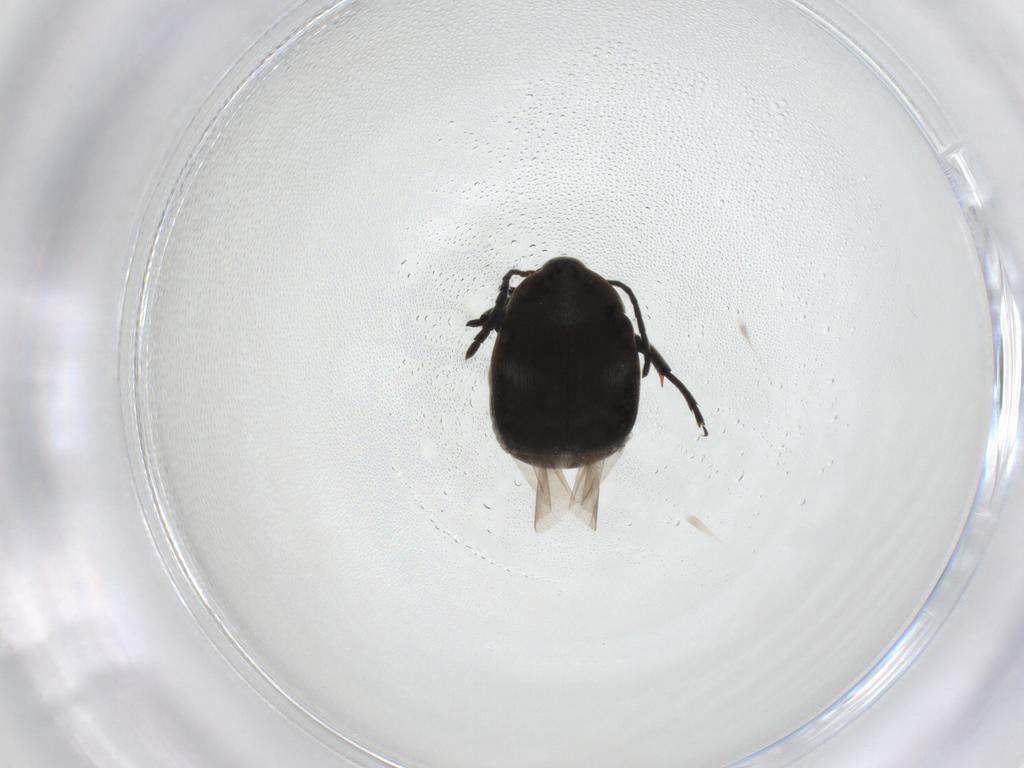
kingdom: Animalia
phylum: Arthropoda
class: Insecta
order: Coleoptera
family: Chrysomelidae
